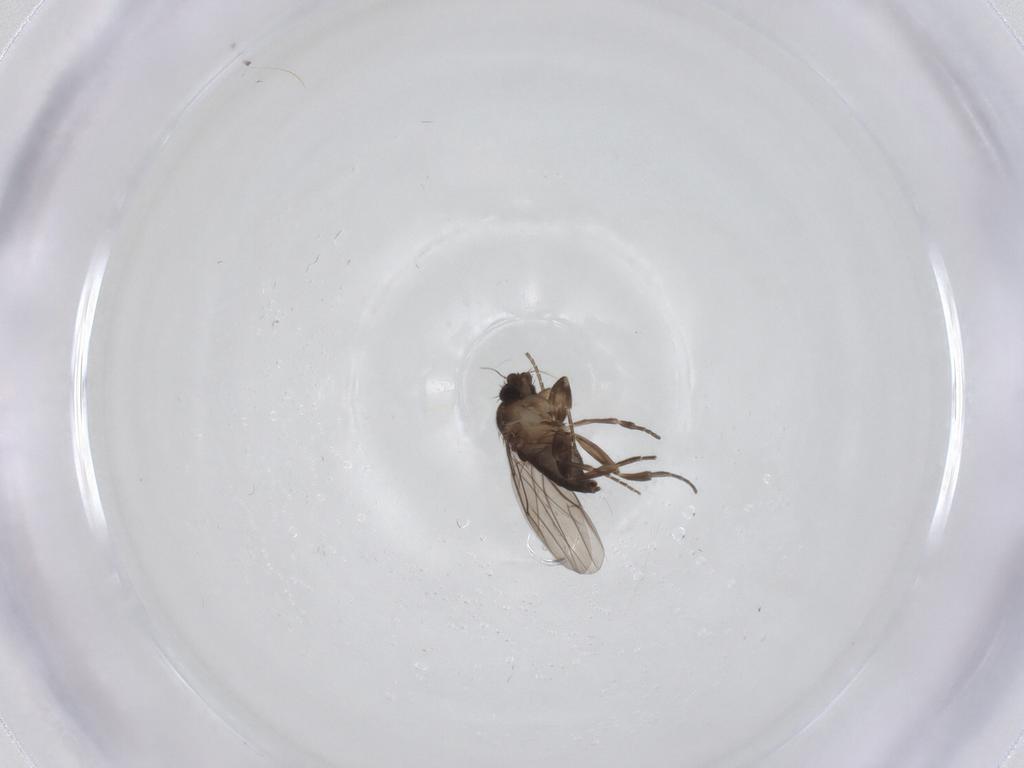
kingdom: Animalia
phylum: Arthropoda
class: Insecta
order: Diptera
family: Phoridae
